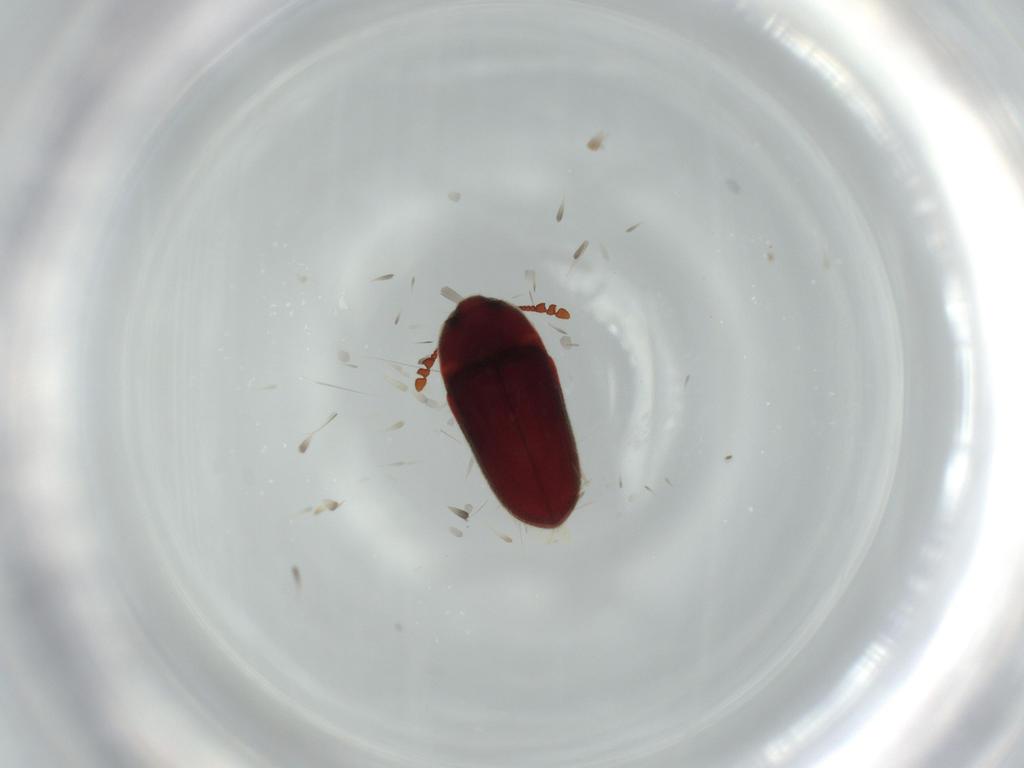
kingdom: Animalia
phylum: Arthropoda
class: Insecta
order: Coleoptera
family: Throscidae
